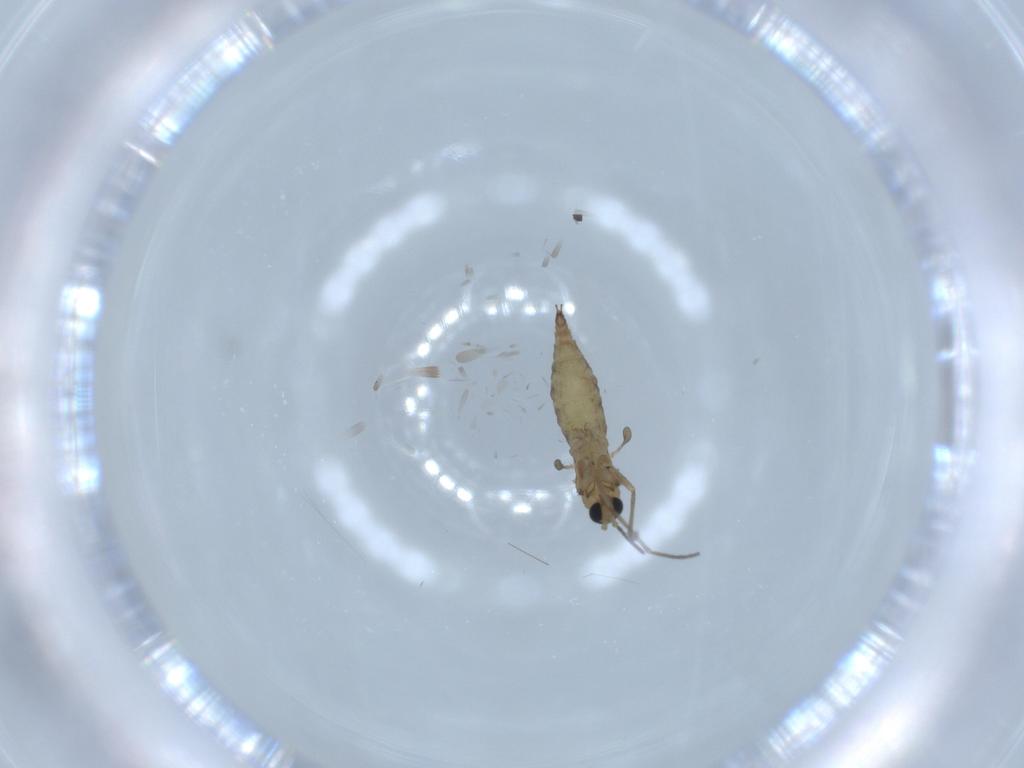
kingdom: Animalia
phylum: Arthropoda
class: Insecta
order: Diptera
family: Sciaridae
